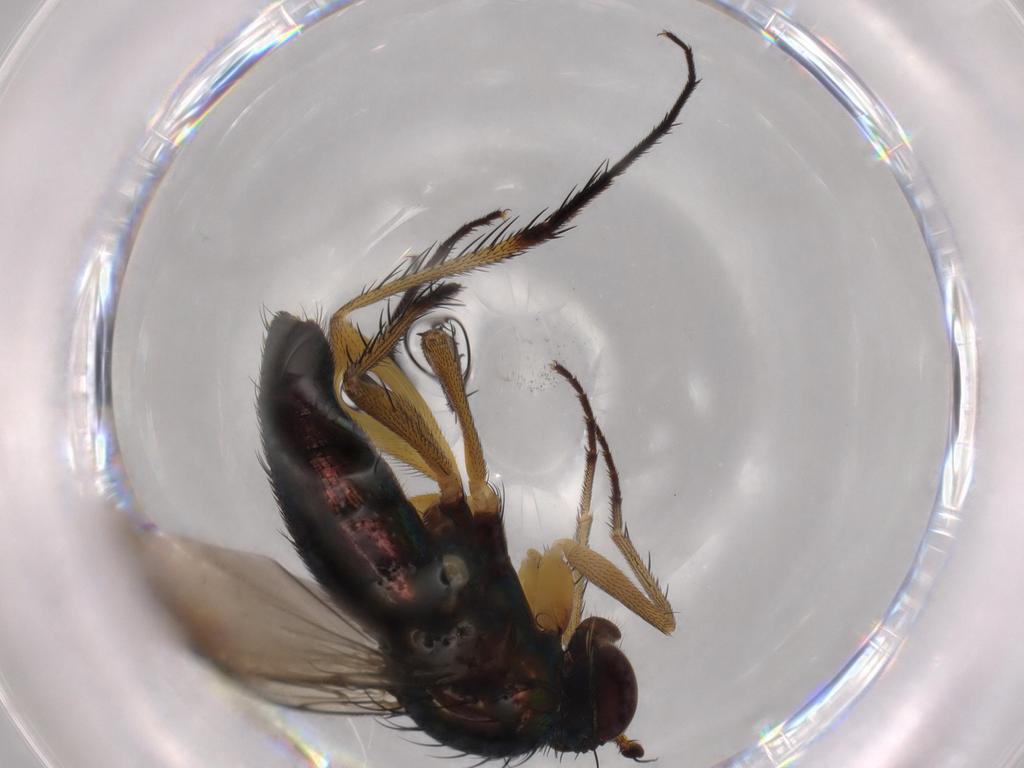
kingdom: Animalia
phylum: Arthropoda
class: Insecta
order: Diptera
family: Dolichopodidae
